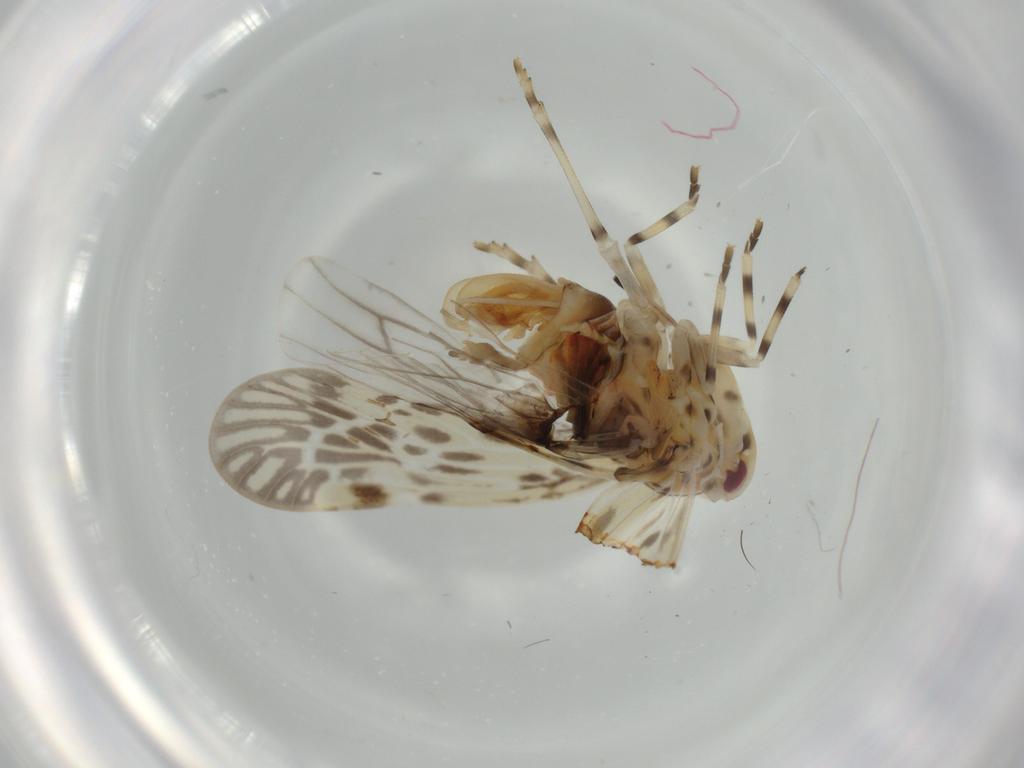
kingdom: Animalia
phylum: Arthropoda
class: Insecta
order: Hemiptera
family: Derbidae
